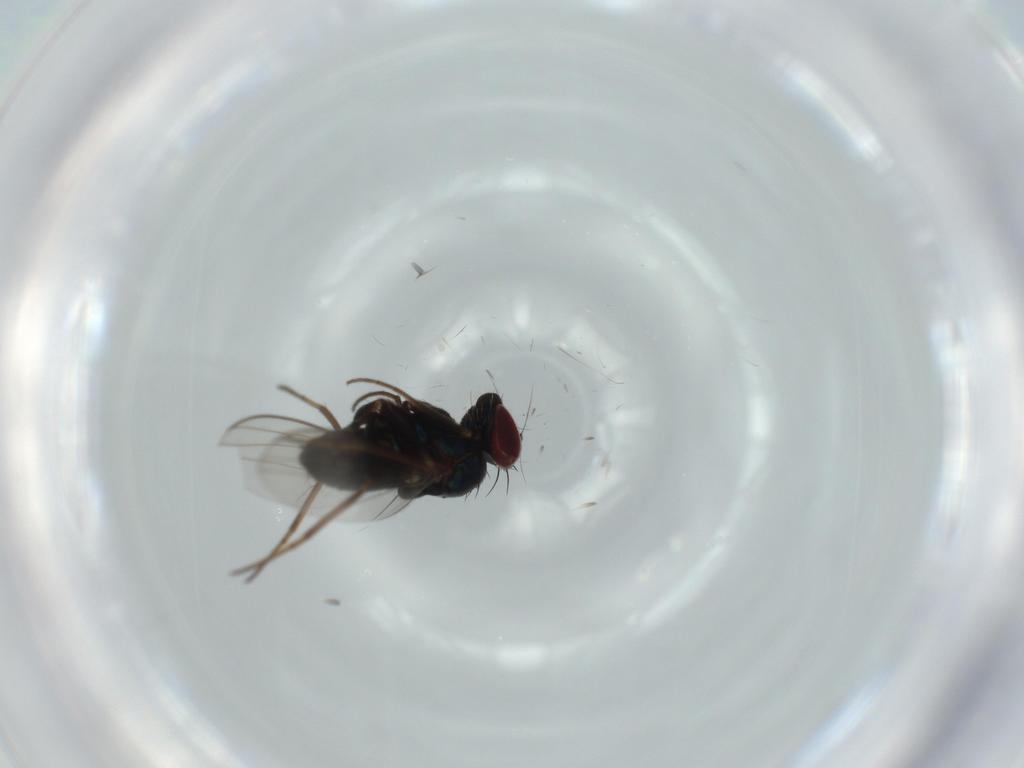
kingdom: Animalia
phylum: Arthropoda
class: Insecta
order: Diptera
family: Dolichopodidae
